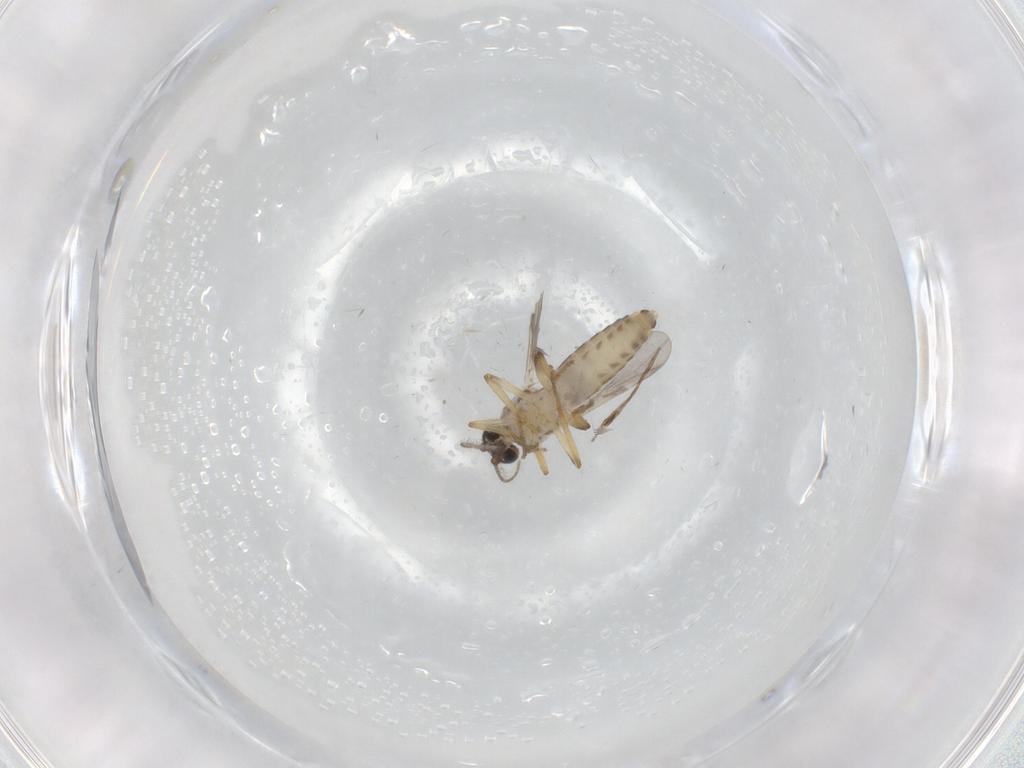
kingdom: Animalia
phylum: Arthropoda
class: Insecta
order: Diptera
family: Ceratopogonidae
